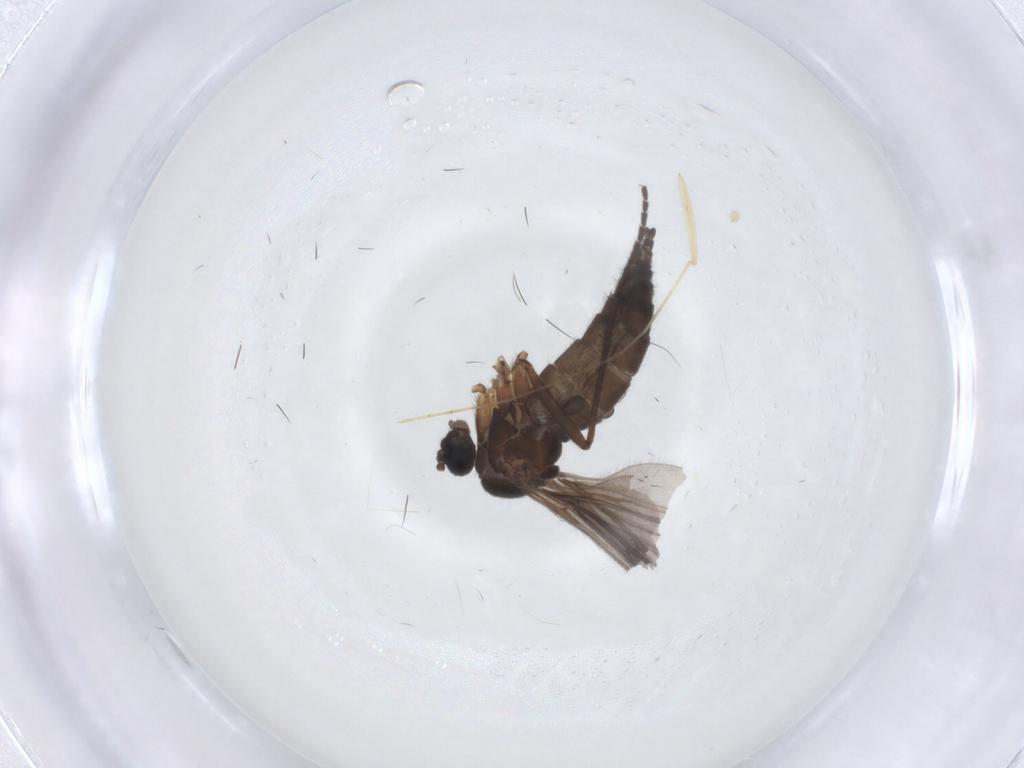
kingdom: Animalia
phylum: Arthropoda
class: Insecta
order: Diptera
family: Sciaridae
